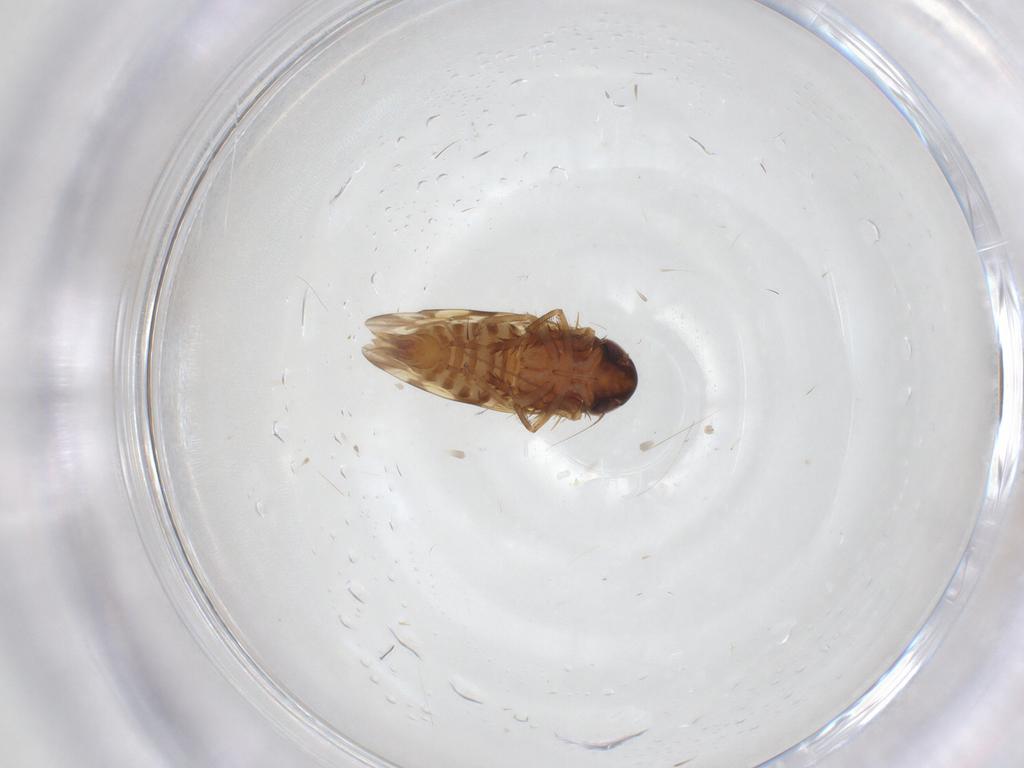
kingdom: Animalia
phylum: Arthropoda
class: Insecta
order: Hemiptera
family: Cicadellidae
